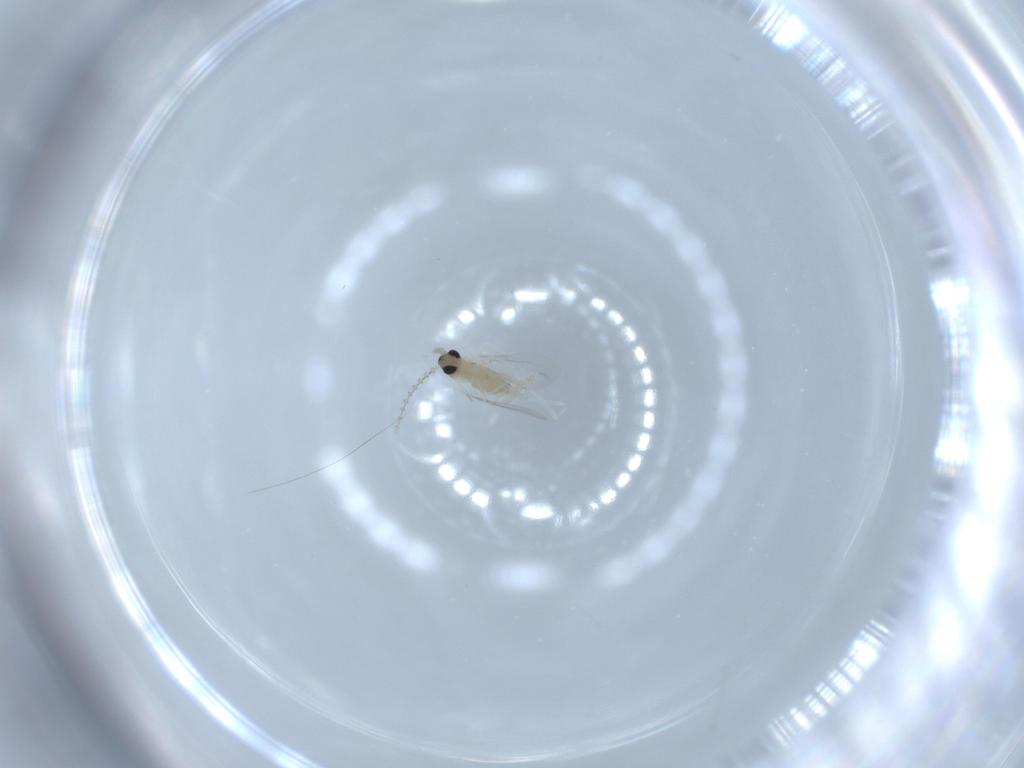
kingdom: Animalia
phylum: Arthropoda
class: Insecta
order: Diptera
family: Cecidomyiidae
